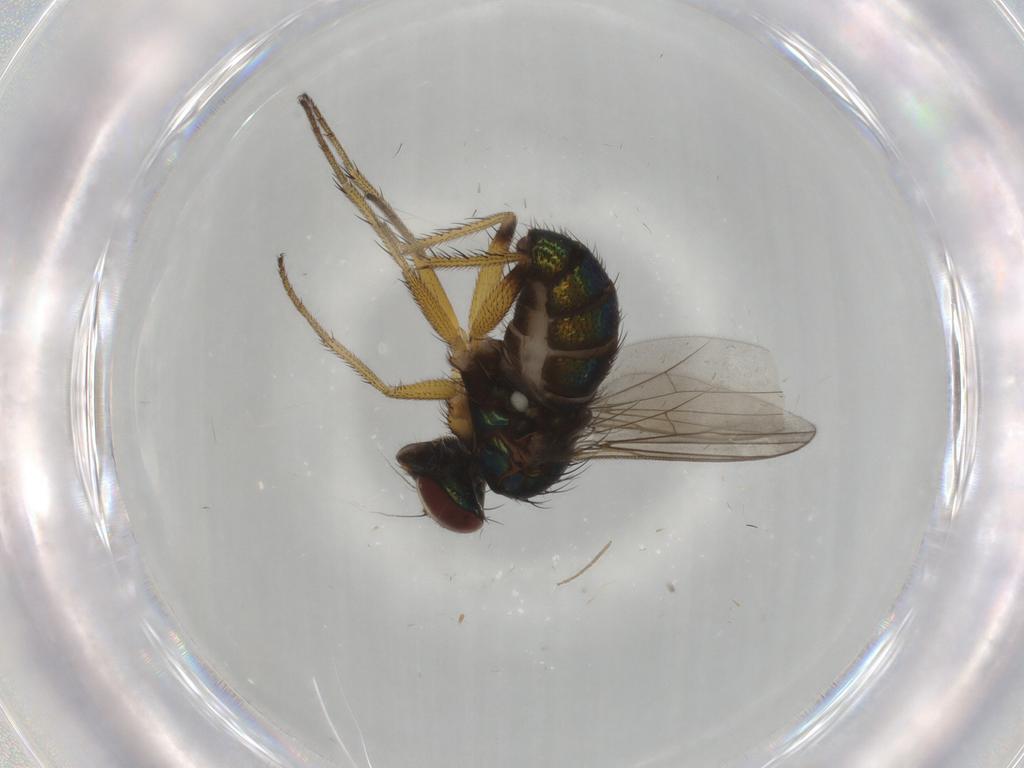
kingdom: Animalia
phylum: Arthropoda
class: Insecta
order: Diptera
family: Dolichopodidae
